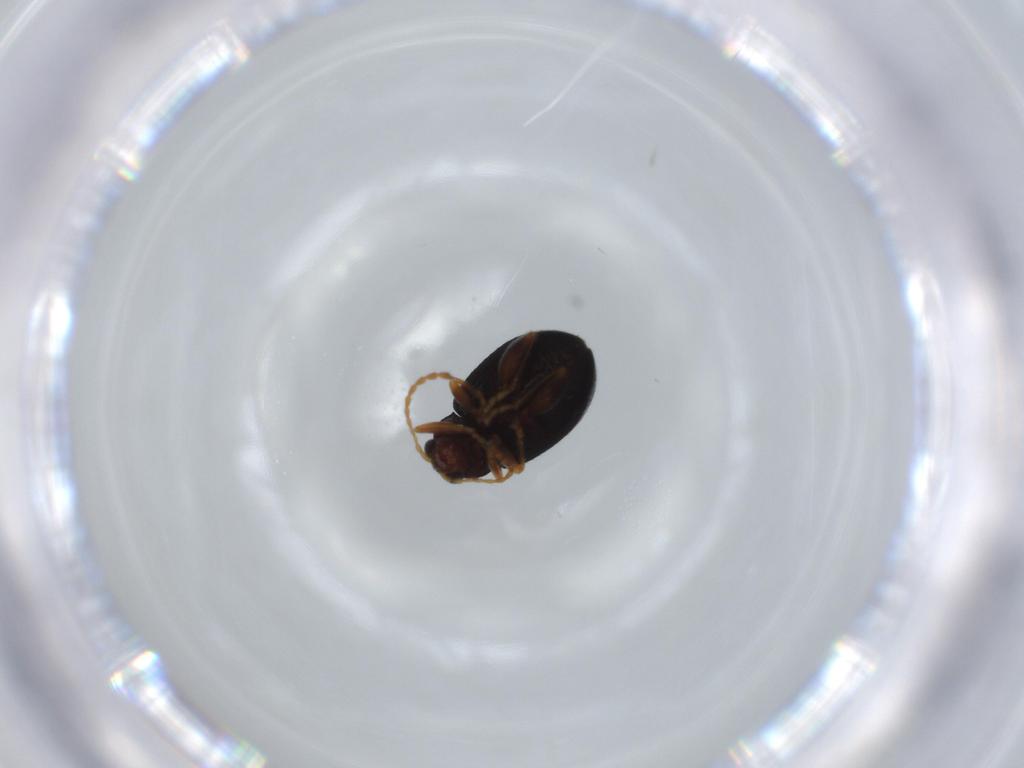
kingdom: Animalia
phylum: Arthropoda
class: Insecta
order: Coleoptera
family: Chrysomelidae
